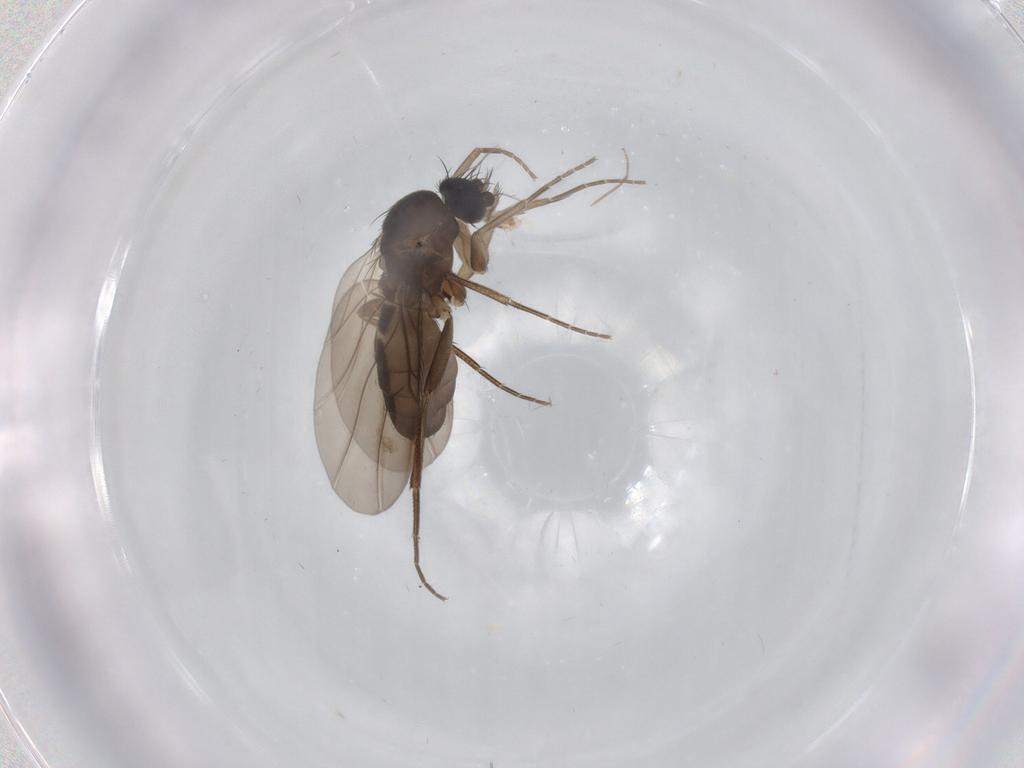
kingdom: Animalia
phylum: Arthropoda
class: Insecta
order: Diptera
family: Phoridae
